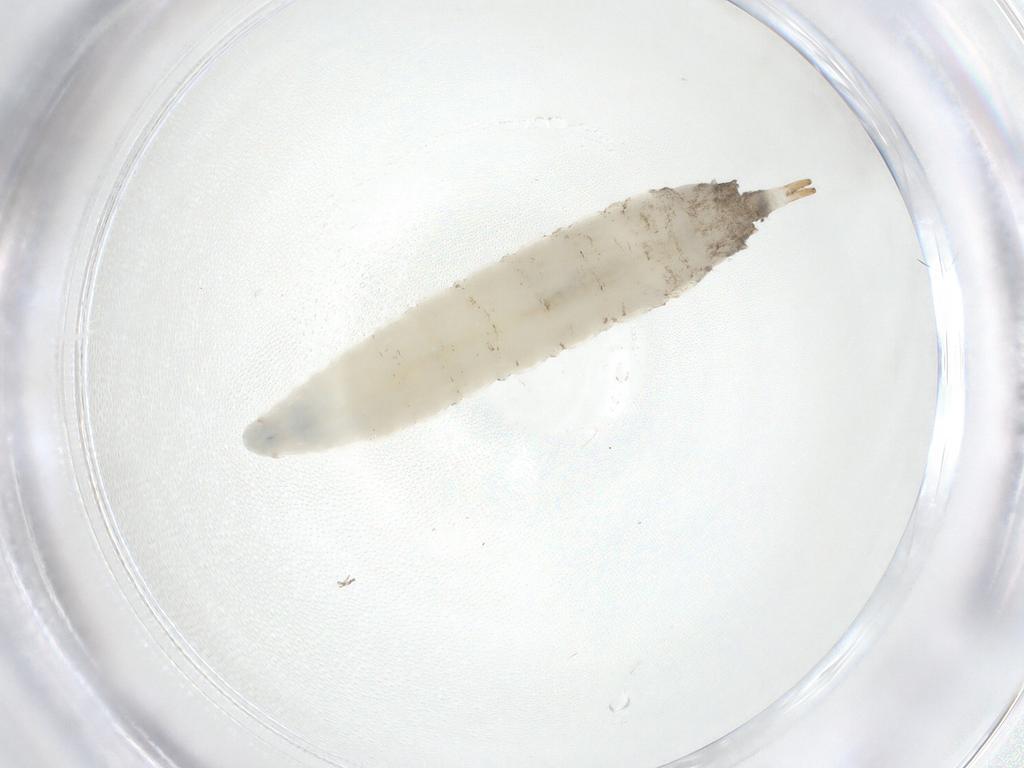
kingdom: Animalia
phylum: Arthropoda
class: Insecta
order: Diptera
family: Drosophilidae
